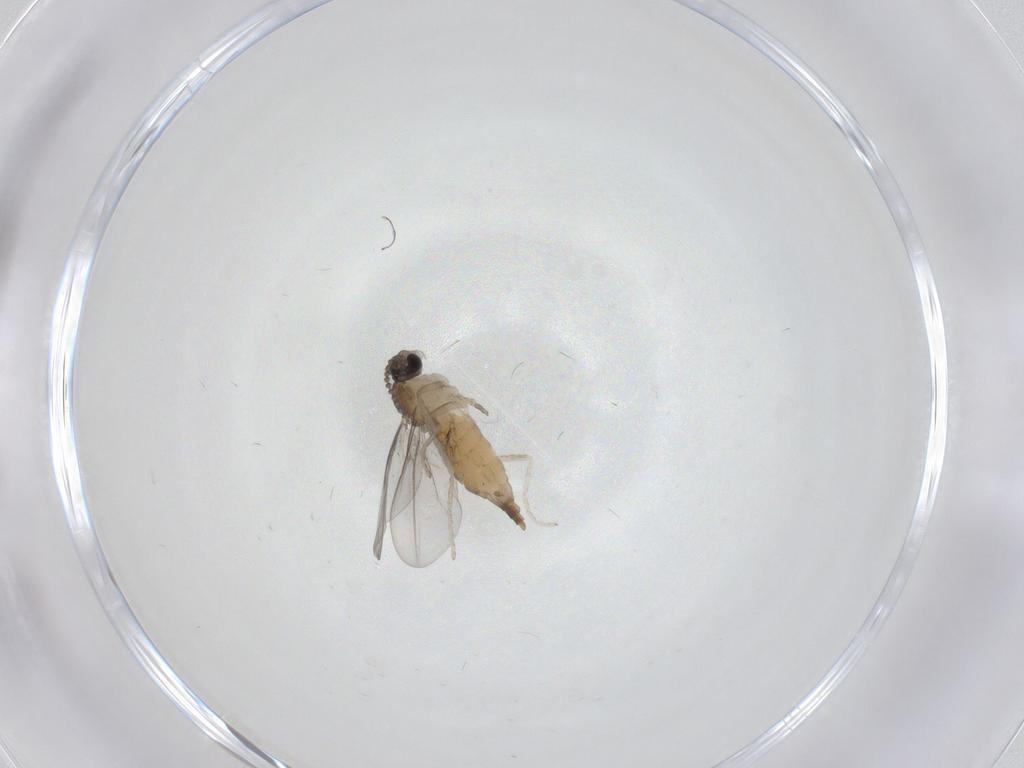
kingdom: Animalia
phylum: Arthropoda
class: Insecta
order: Diptera
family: Cecidomyiidae
